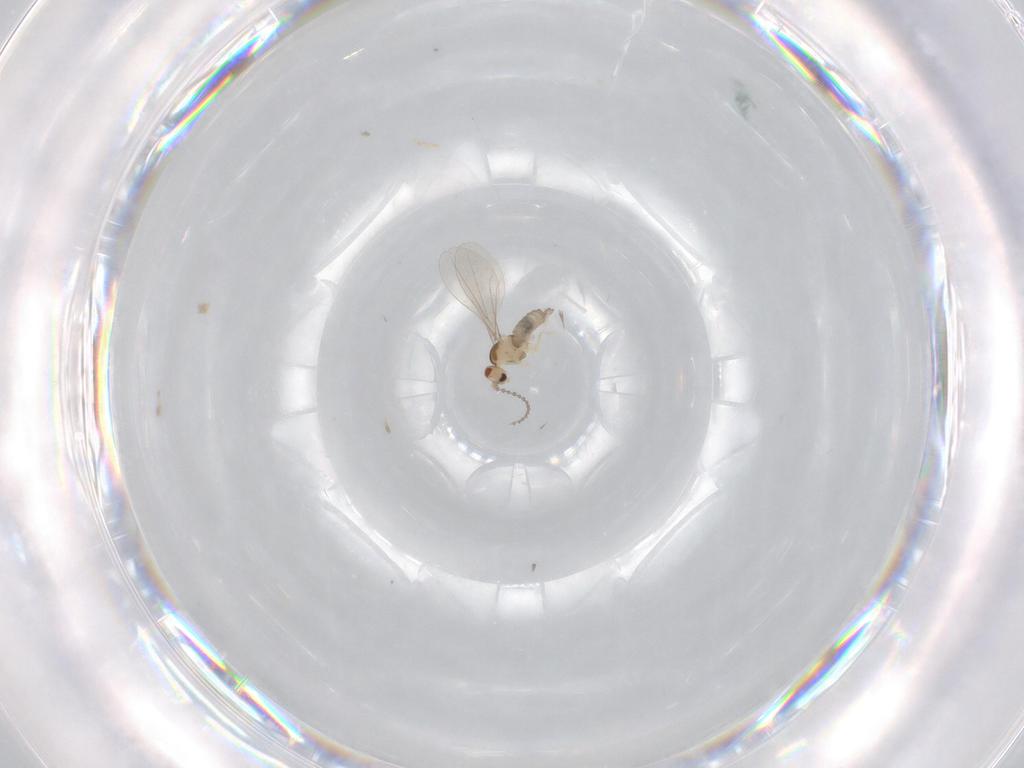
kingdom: Animalia
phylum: Arthropoda
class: Insecta
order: Diptera
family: Cecidomyiidae
